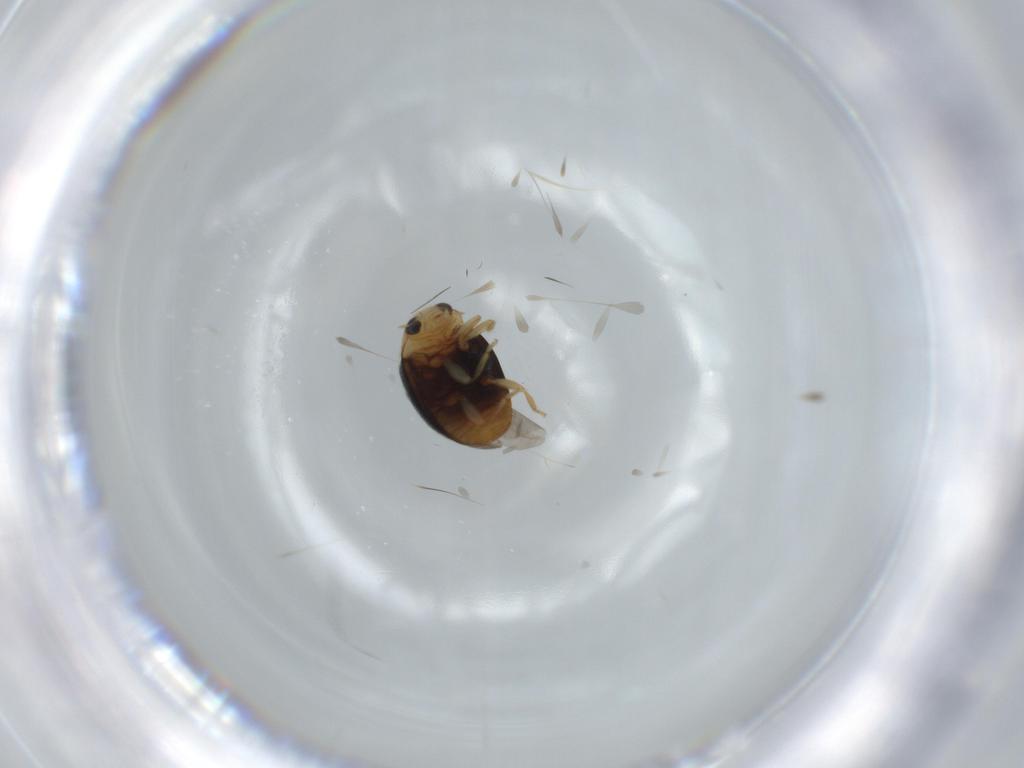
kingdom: Animalia
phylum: Arthropoda
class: Insecta
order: Coleoptera
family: Coccinellidae
